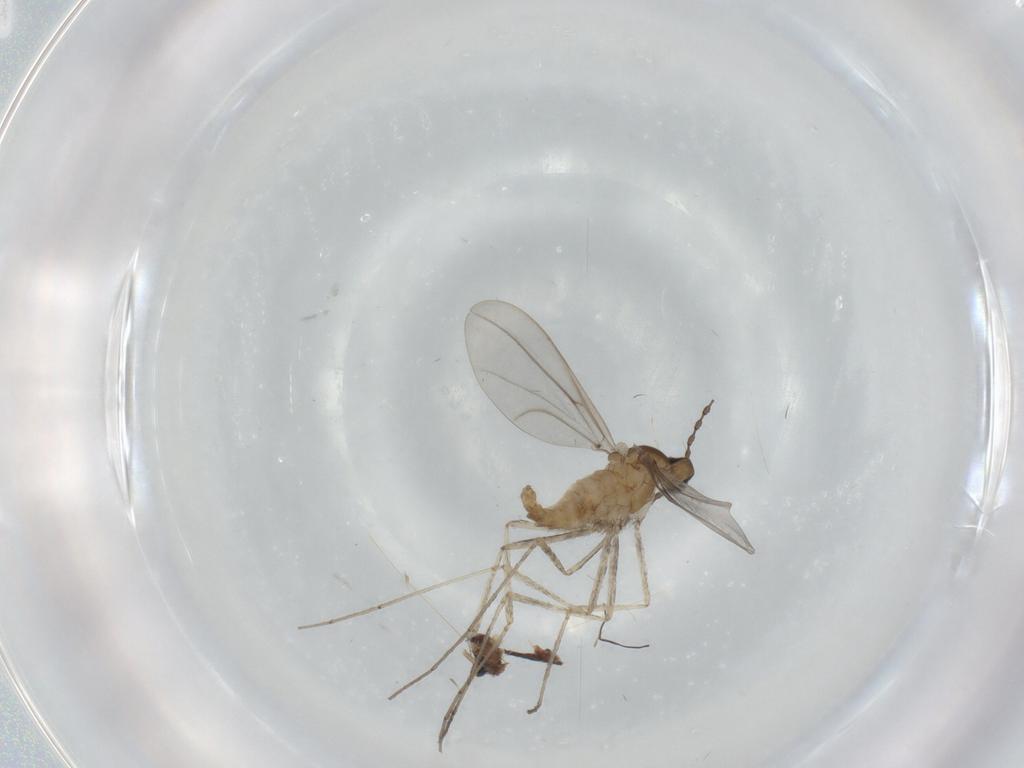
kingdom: Animalia
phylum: Arthropoda
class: Insecta
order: Diptera
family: Cecidomyiidae
